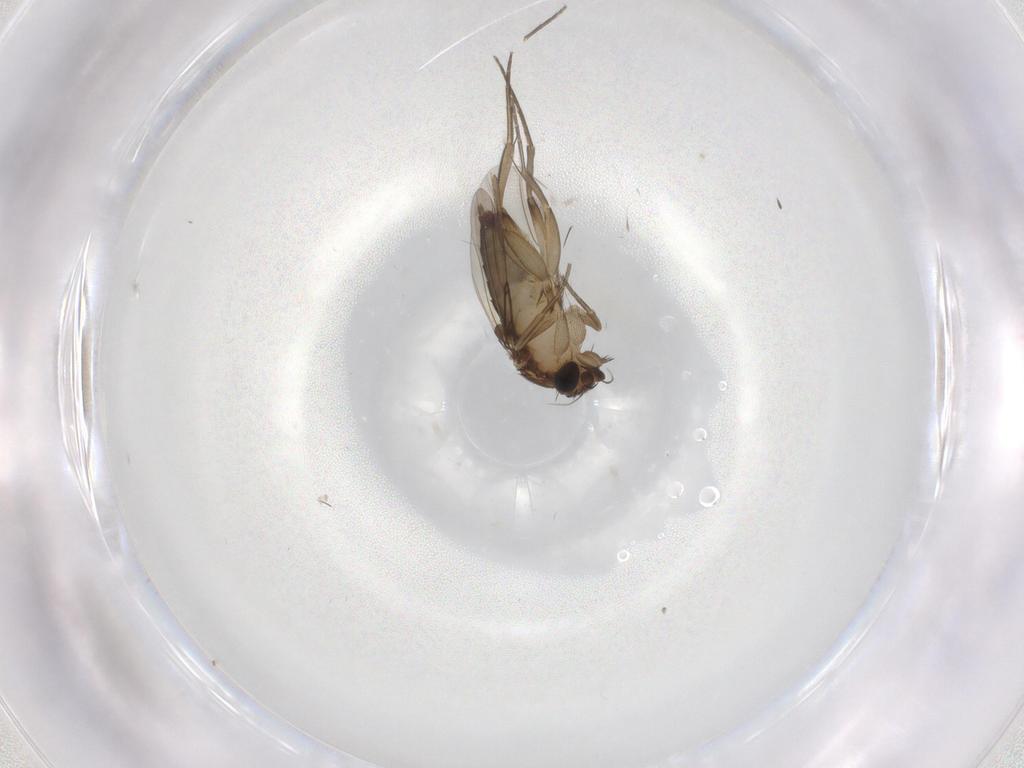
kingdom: Animalia
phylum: Arthropoda
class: Insecta
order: Diptera
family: Phoridae
